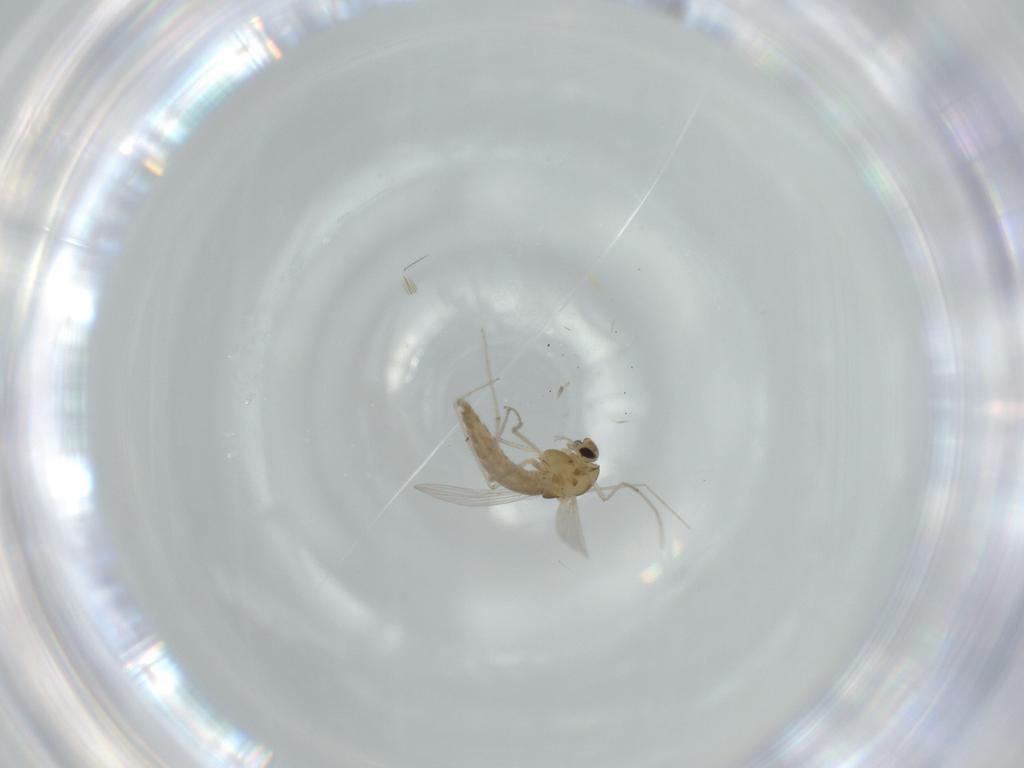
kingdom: Animalia
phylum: Arthropoda
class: Insecta
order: Diptera
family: Chironomidae
